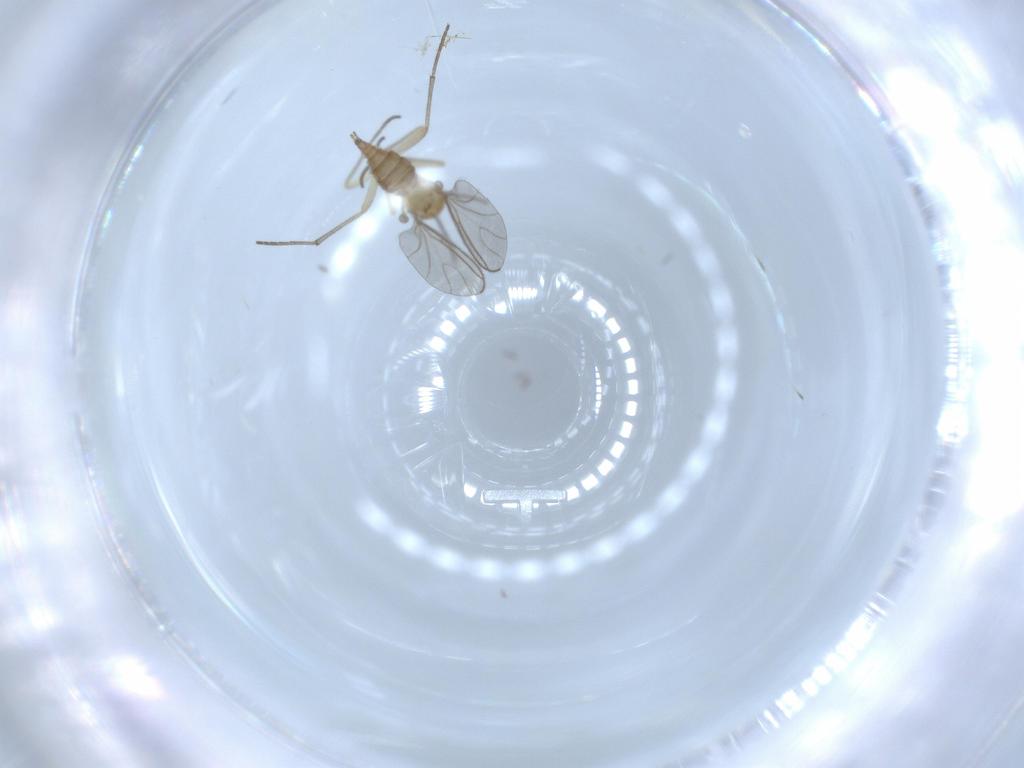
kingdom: Animalia
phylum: Arthropoda
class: Insecta
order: Diptera
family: Sciaridae
